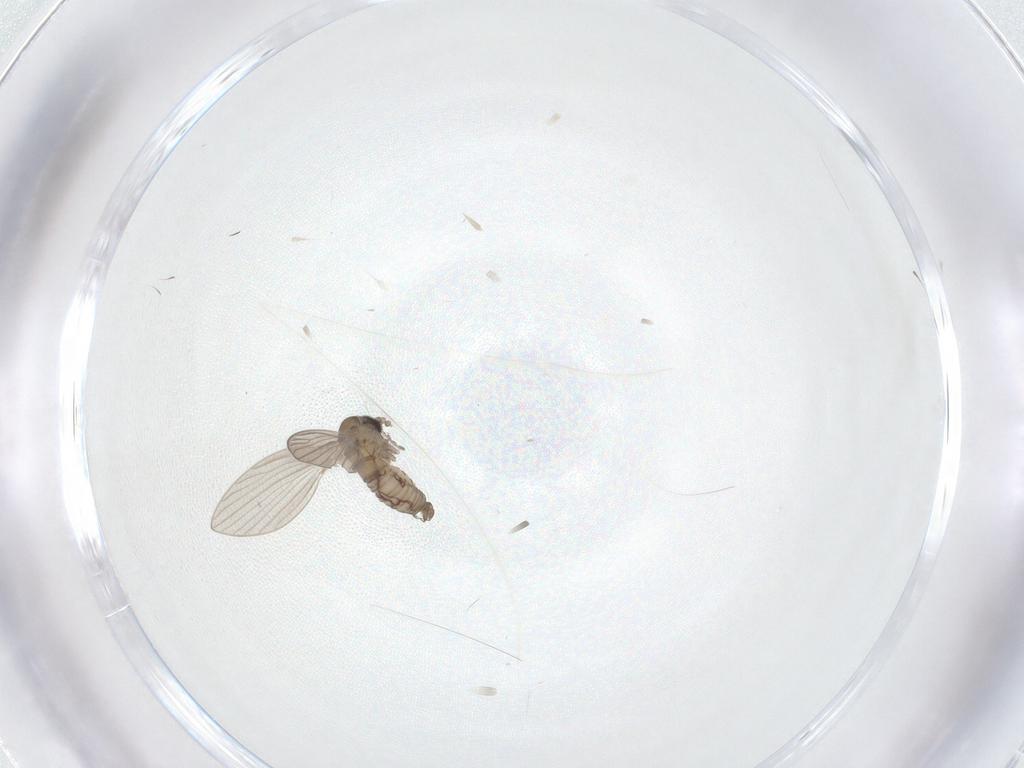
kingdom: Animalia
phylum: Arthropoda
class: Insecta
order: Diptera
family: Psychodidae
